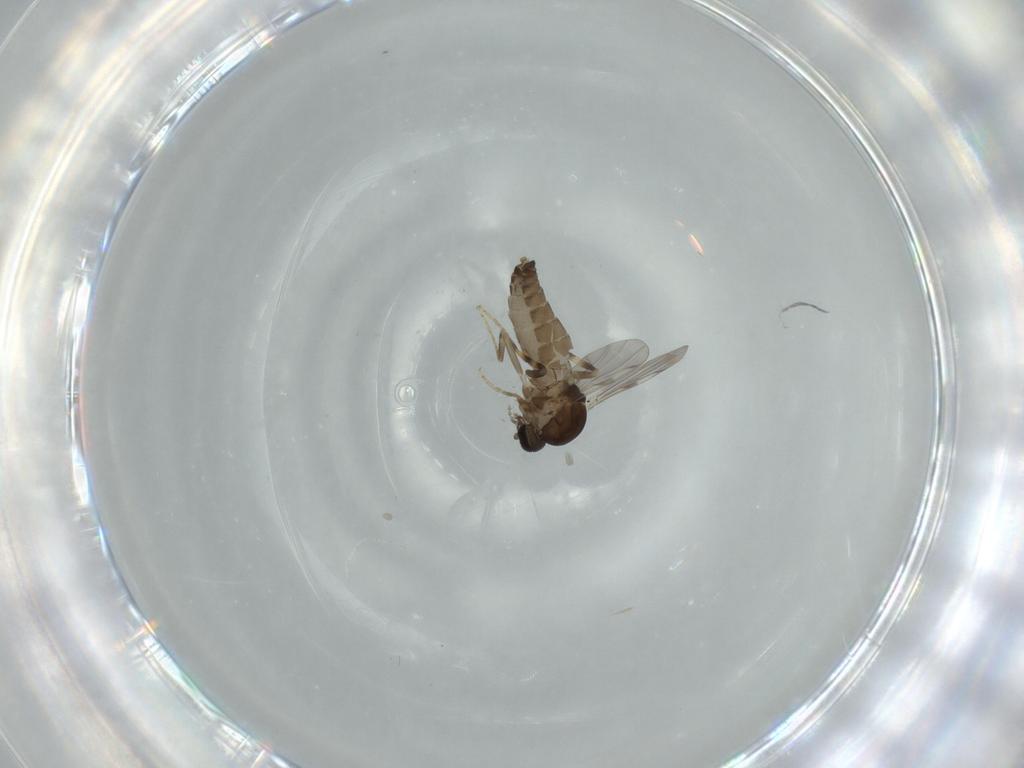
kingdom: Animalia
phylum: Arthropoda
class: Insecta
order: Diptera
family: Ceratopogonidae
